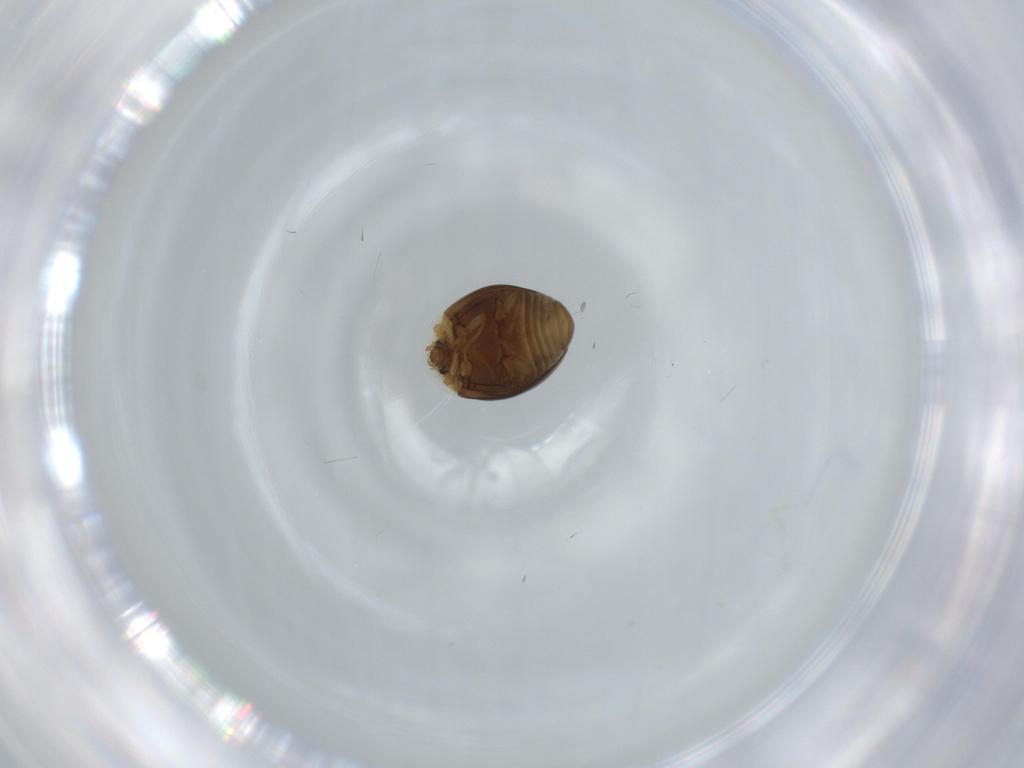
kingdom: Animalia
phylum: Arthropoda
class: Insecta
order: Coleoptera
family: Corylophidae
